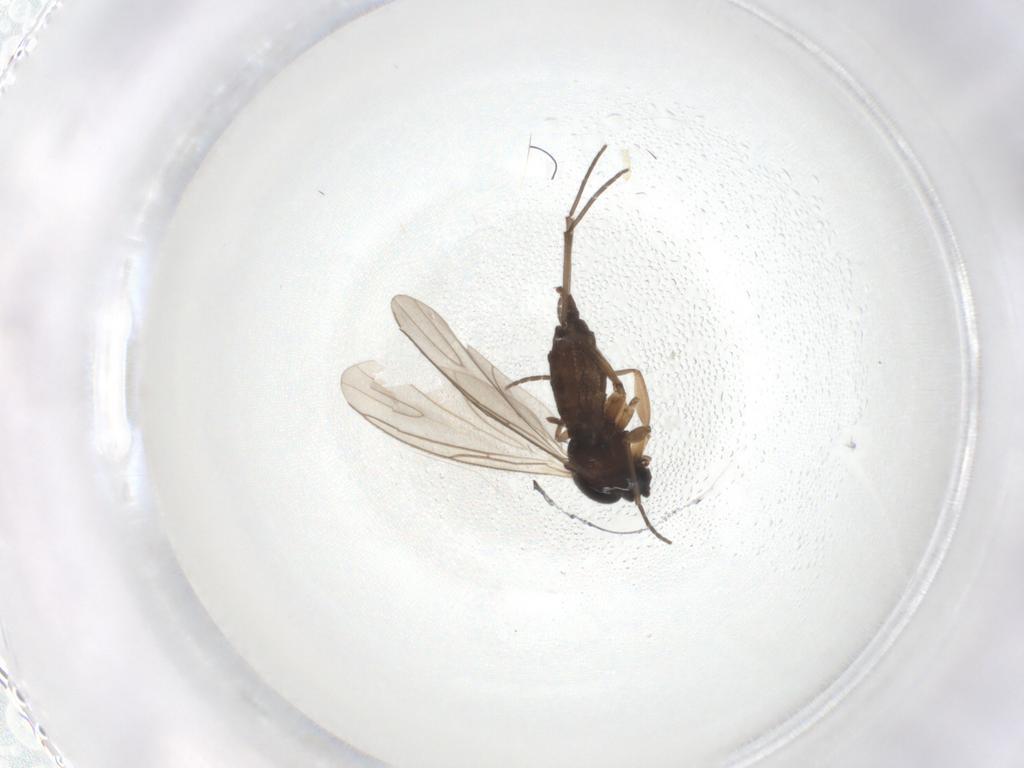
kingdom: Animalia
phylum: Arthropoda
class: Insecta
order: Diptera
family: Sciaridae
